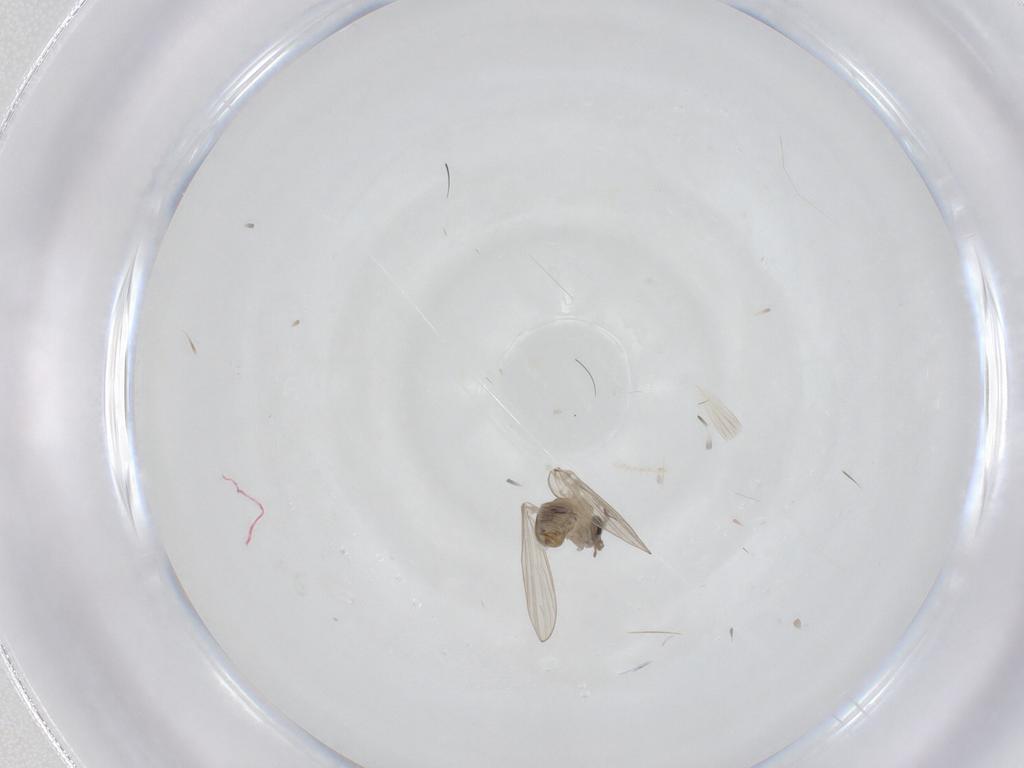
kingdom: Animalia
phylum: Arthropoda
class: Insecta
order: Diptera
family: Psychodidae
